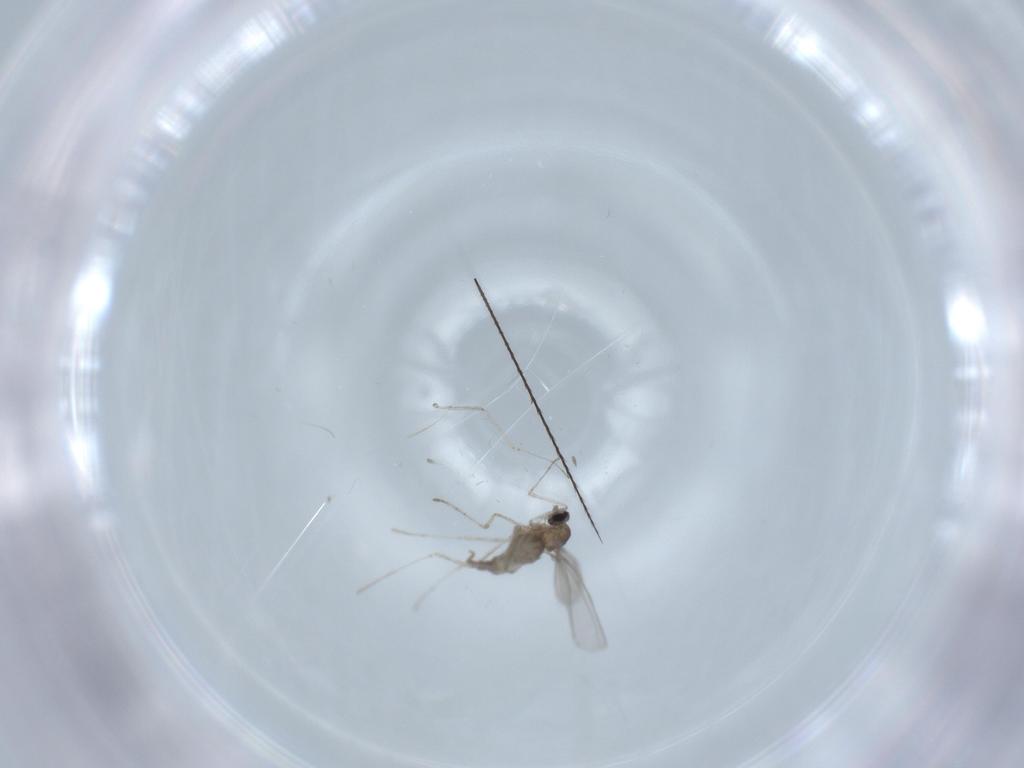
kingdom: Animalia
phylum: Arthropoda
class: Insecta
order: Diptera
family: Cecidomyiidae
